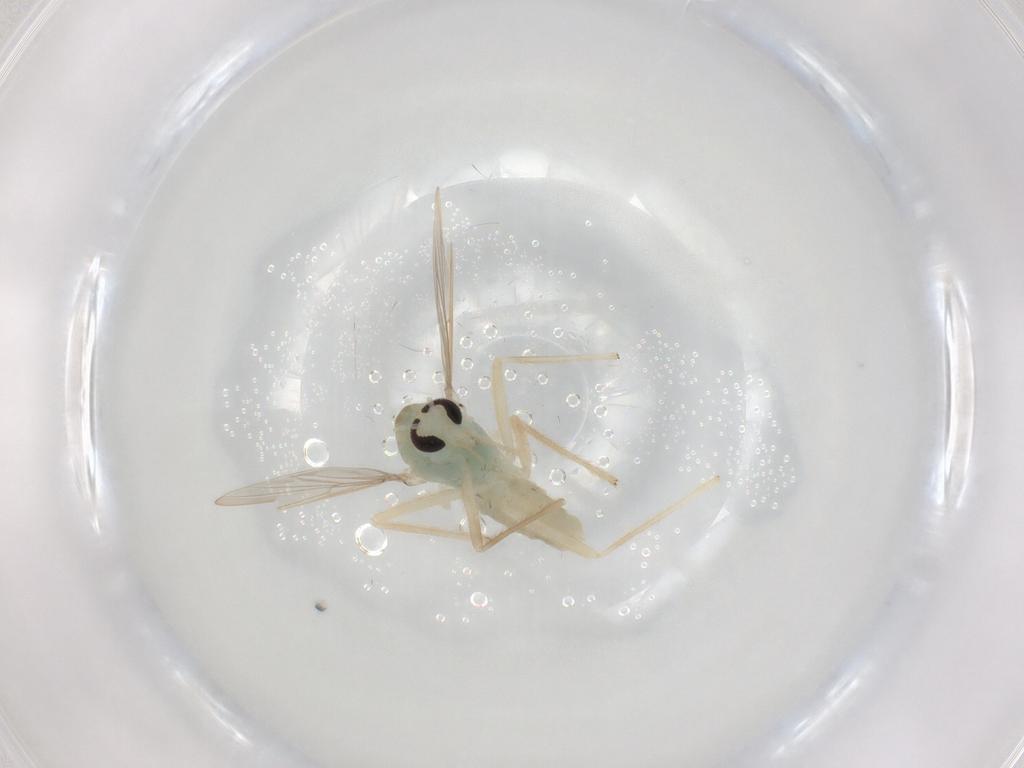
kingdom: Animalia
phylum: Arthropoda
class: Insecta
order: Diptera
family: Chironomidae
